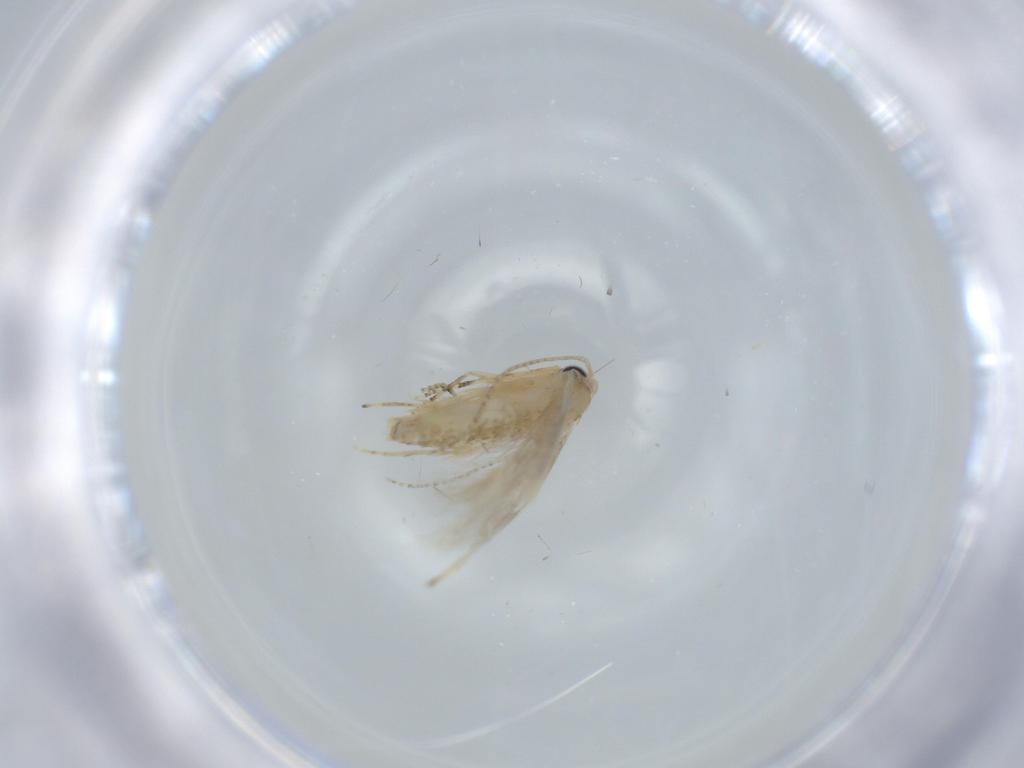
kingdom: Animalia
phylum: Arthropoda
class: Insecta
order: Lepidoptera
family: Bucculatricidae
